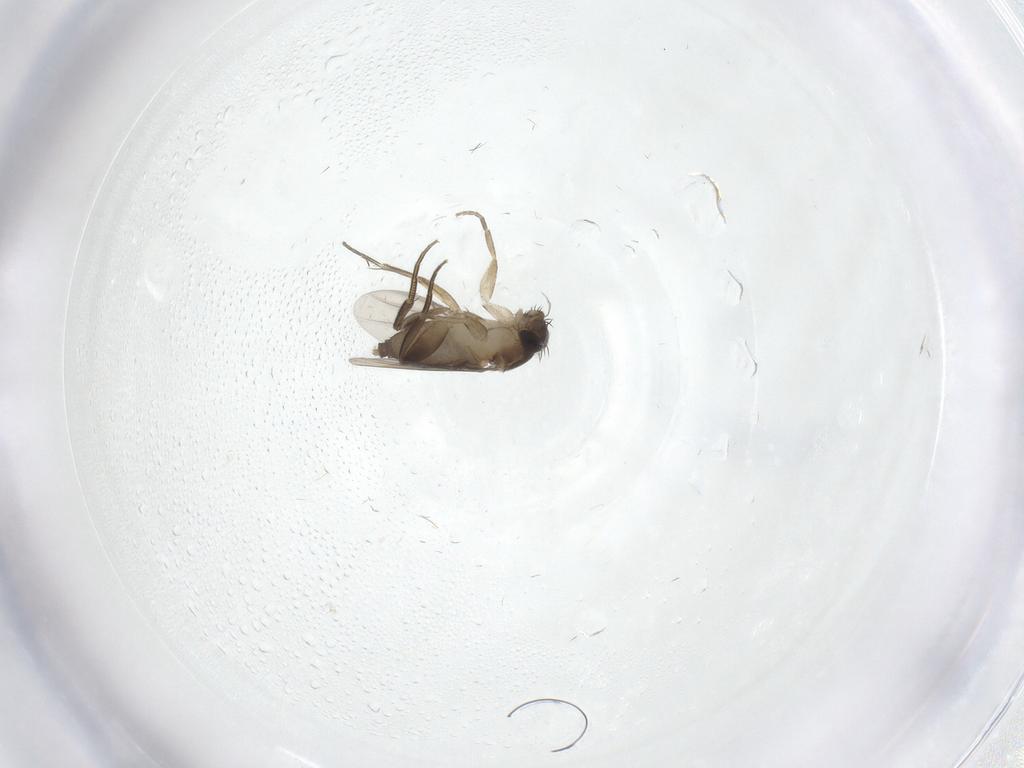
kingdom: Animalia
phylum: Arthropoda
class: Insecta
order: Diptera
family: Phoridae
